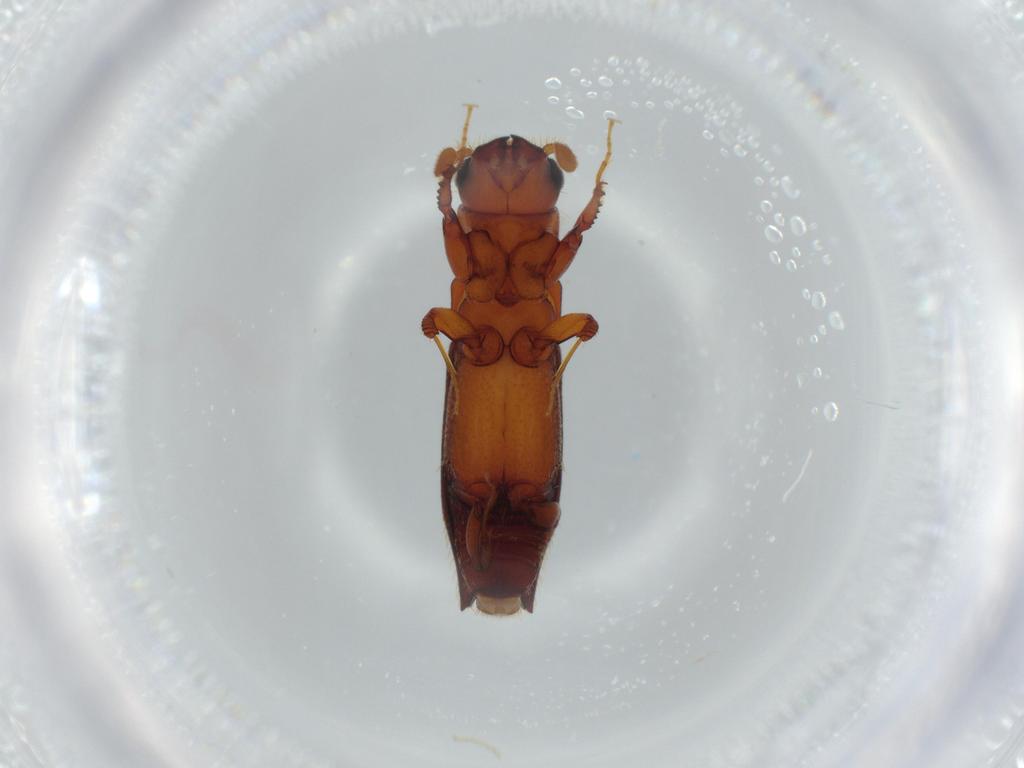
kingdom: Animalia
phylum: Arthropoda
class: Insecta
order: Coleoptera
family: Curculionidae
